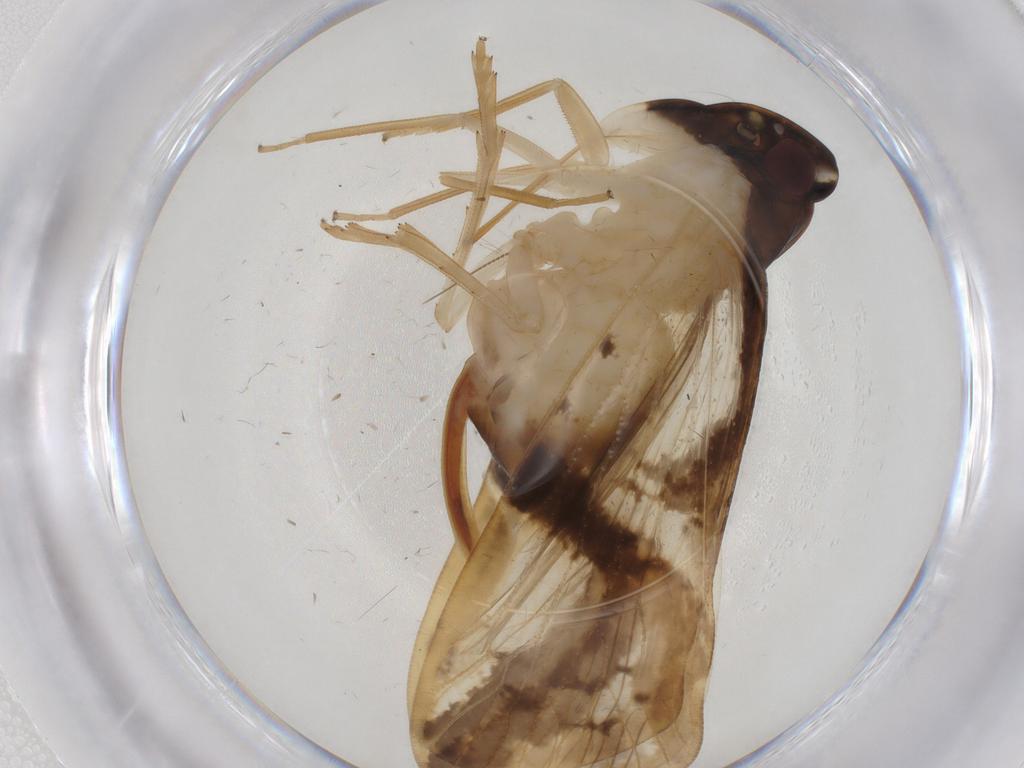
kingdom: Animalia
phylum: Arthropoda
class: Insecta
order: Hemiptera
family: Cixiidae
